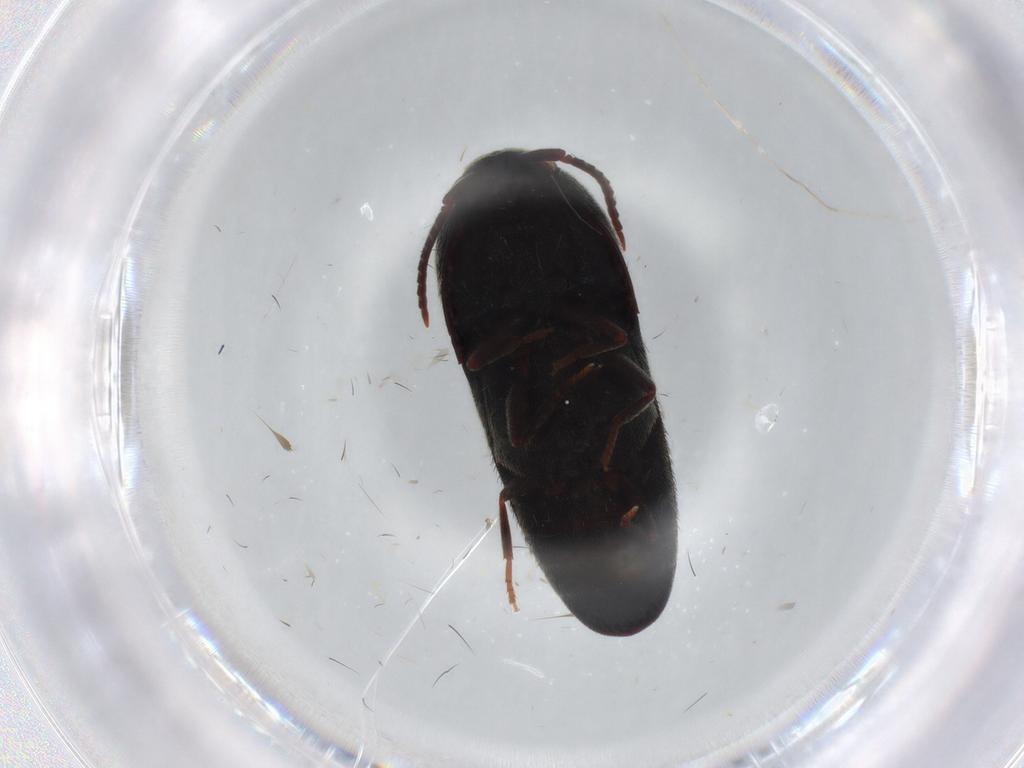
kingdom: Animalia
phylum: Arthropoda
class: Insecta
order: Coleoptera
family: Eucnemidae
